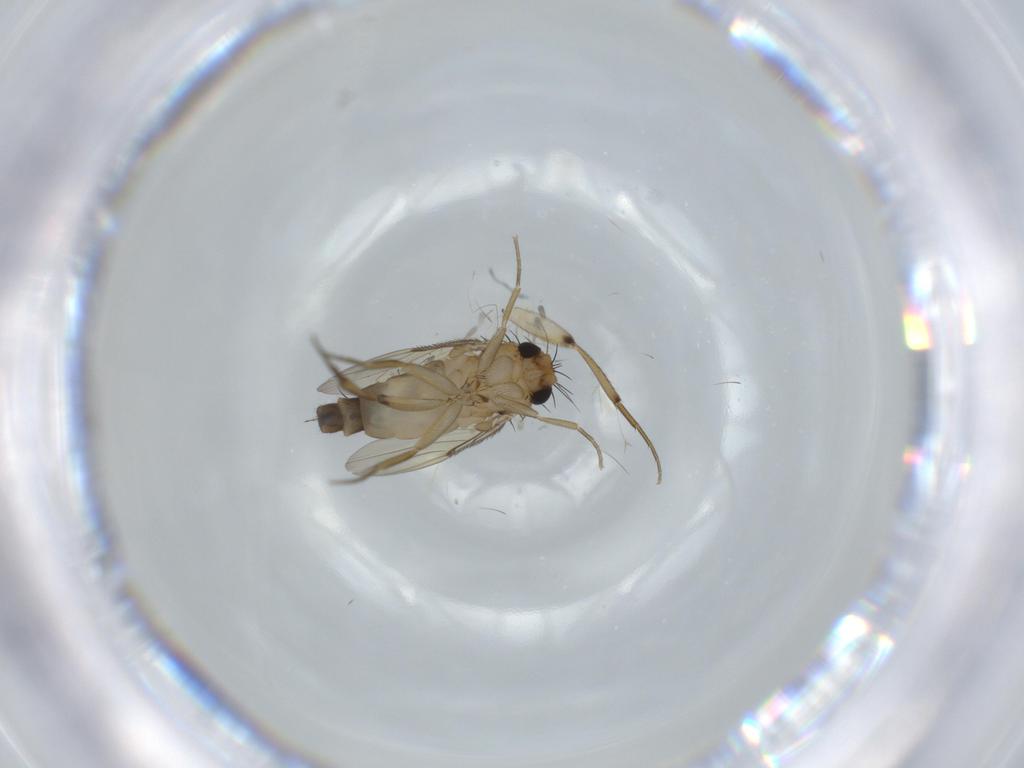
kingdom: Animalia
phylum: Arthropoda
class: Insecta
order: Diptera
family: Cecidomyiidae
